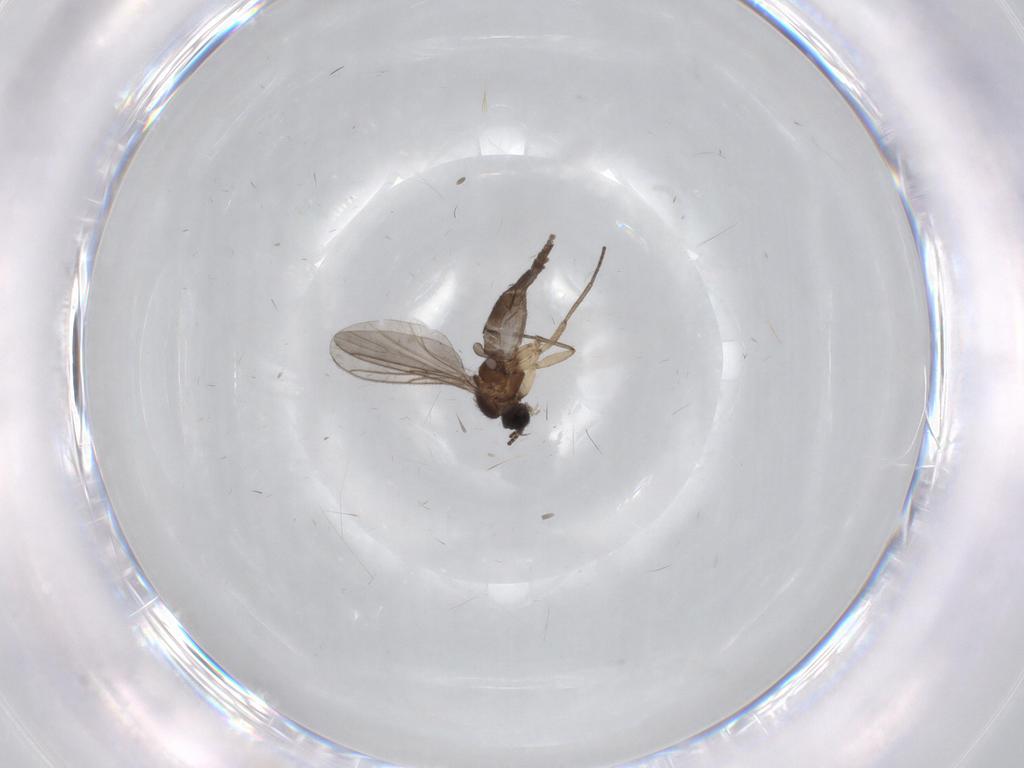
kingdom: Animalia
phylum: Arthropoda
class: Insecta
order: Diptera
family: Sciaridae
